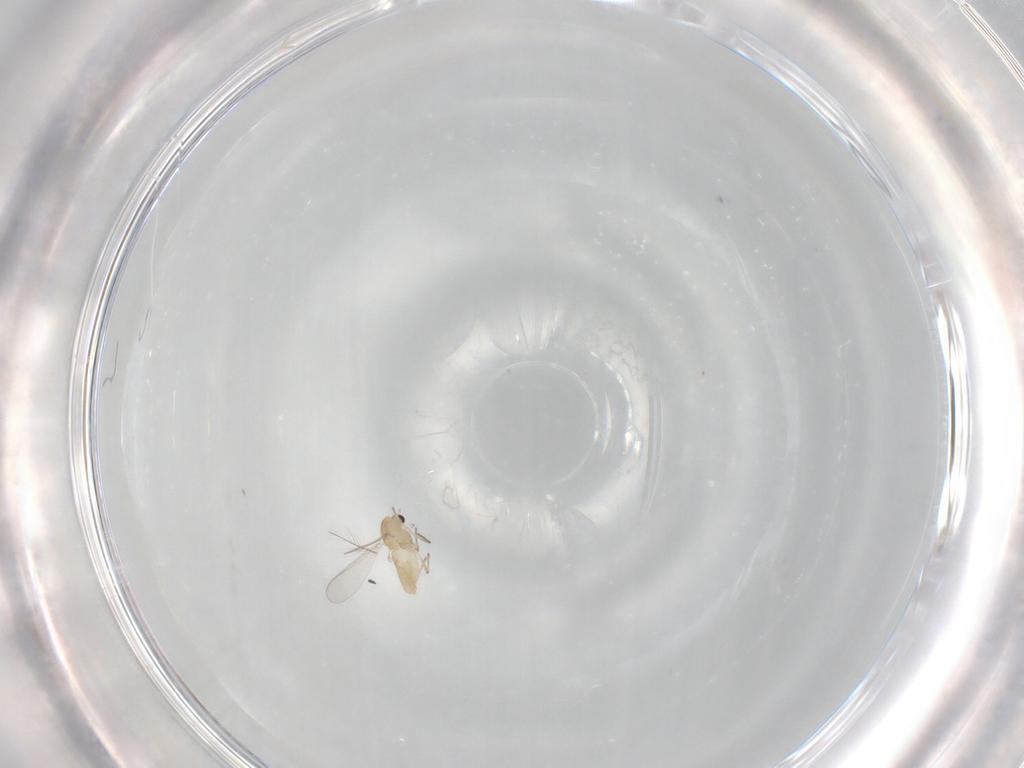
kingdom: Animalia
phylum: Arthropoda
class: Insecta
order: Diptera
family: Chironomidae
